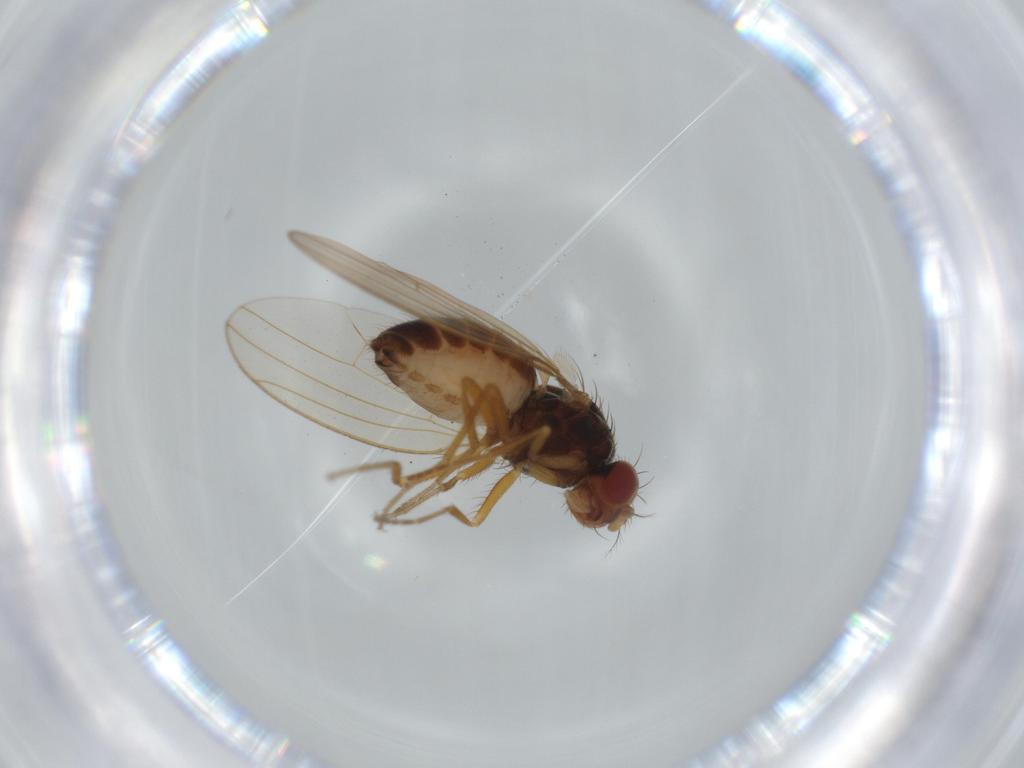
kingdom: Animalia
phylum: Arthropoda
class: Insecta
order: Diptera
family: Drosophilidae
